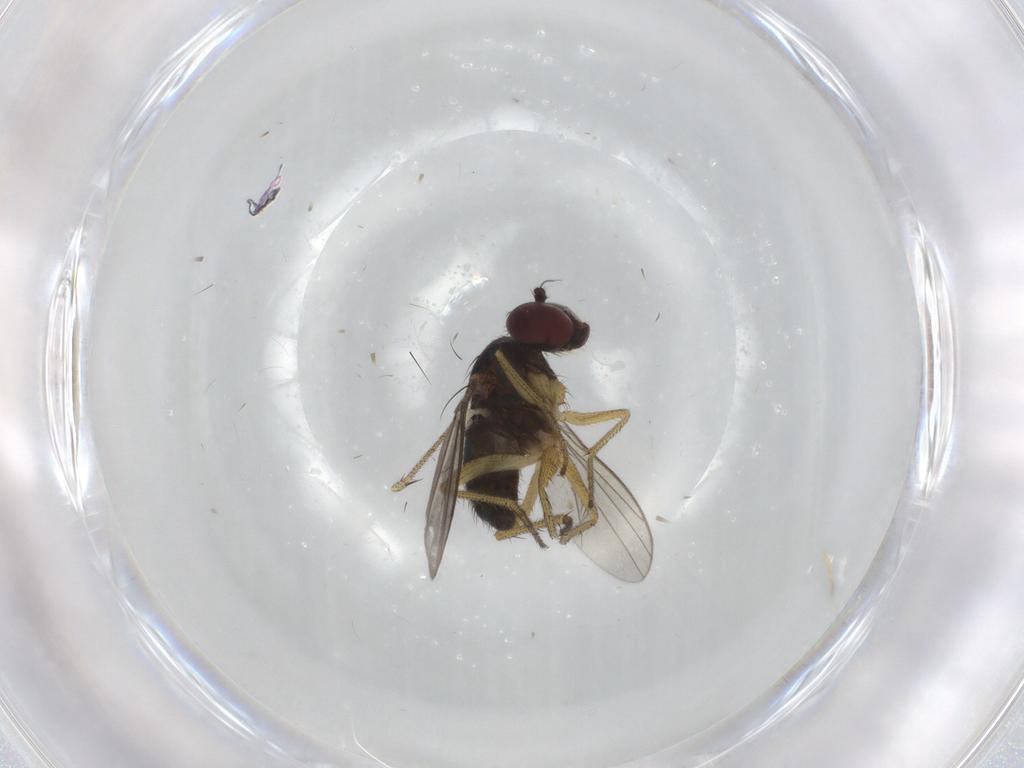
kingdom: Animalia
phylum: Arthropoda
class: Insecta
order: Diptera
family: Dolichopodidae
